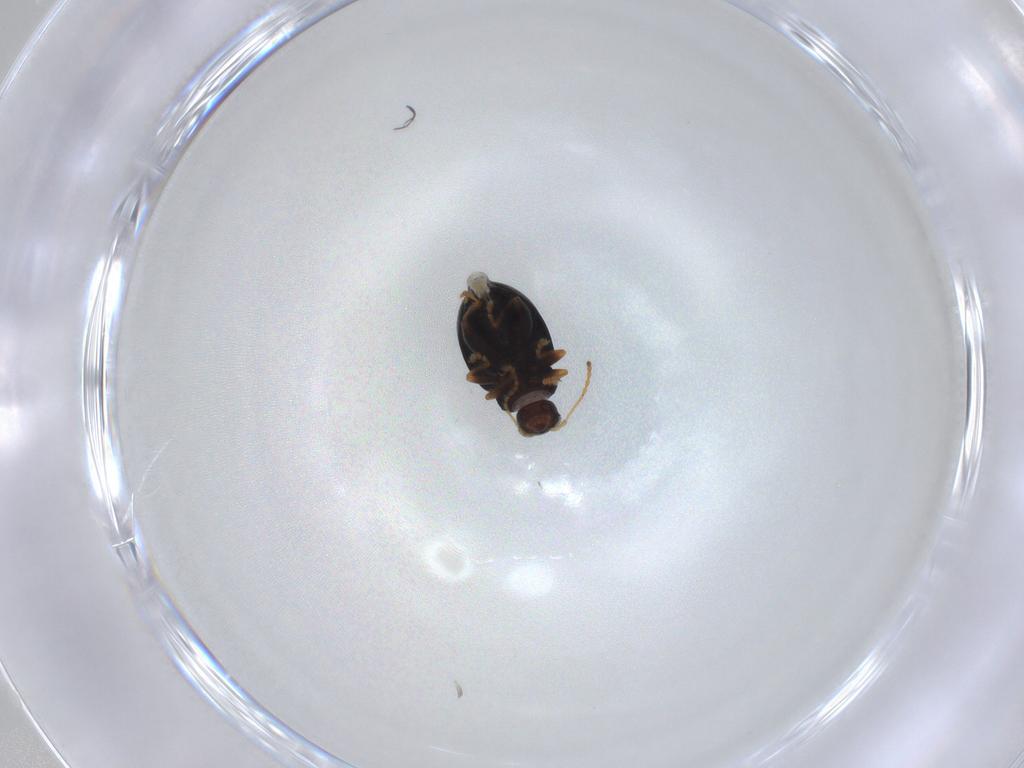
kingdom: Animalia
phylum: Arthropoda
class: Insecta
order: Coleoptera
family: Chrysomelidae
